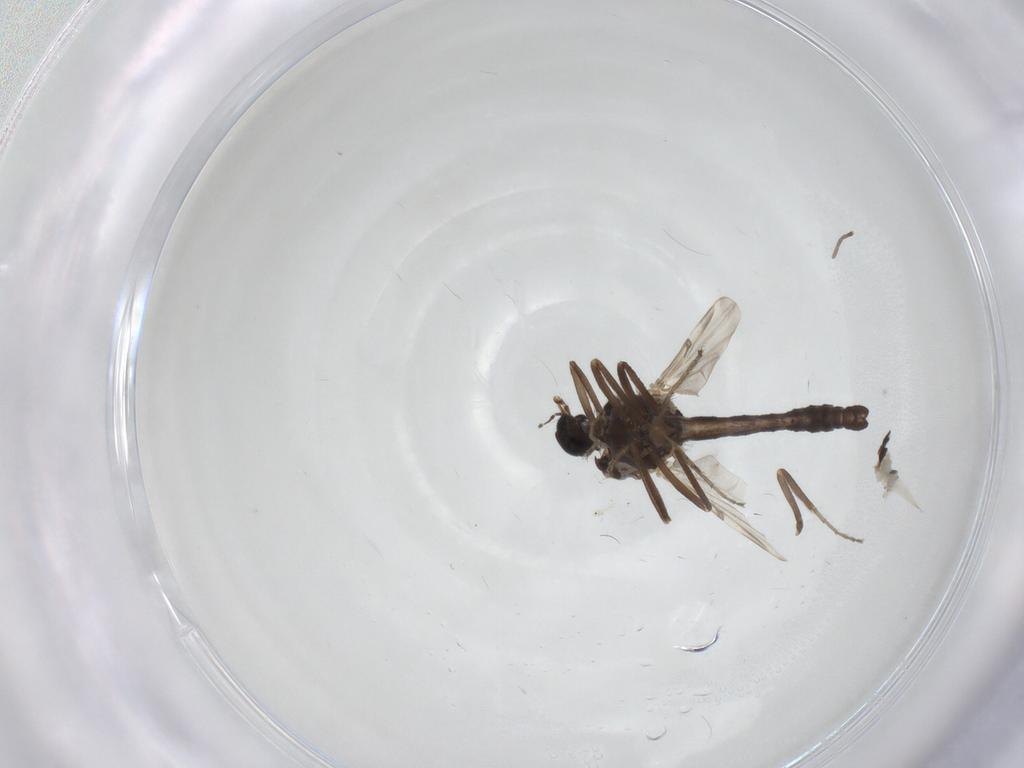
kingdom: Animalia
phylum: Arthropoda
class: Insecta
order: Diptera
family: Ceratopogonidae
